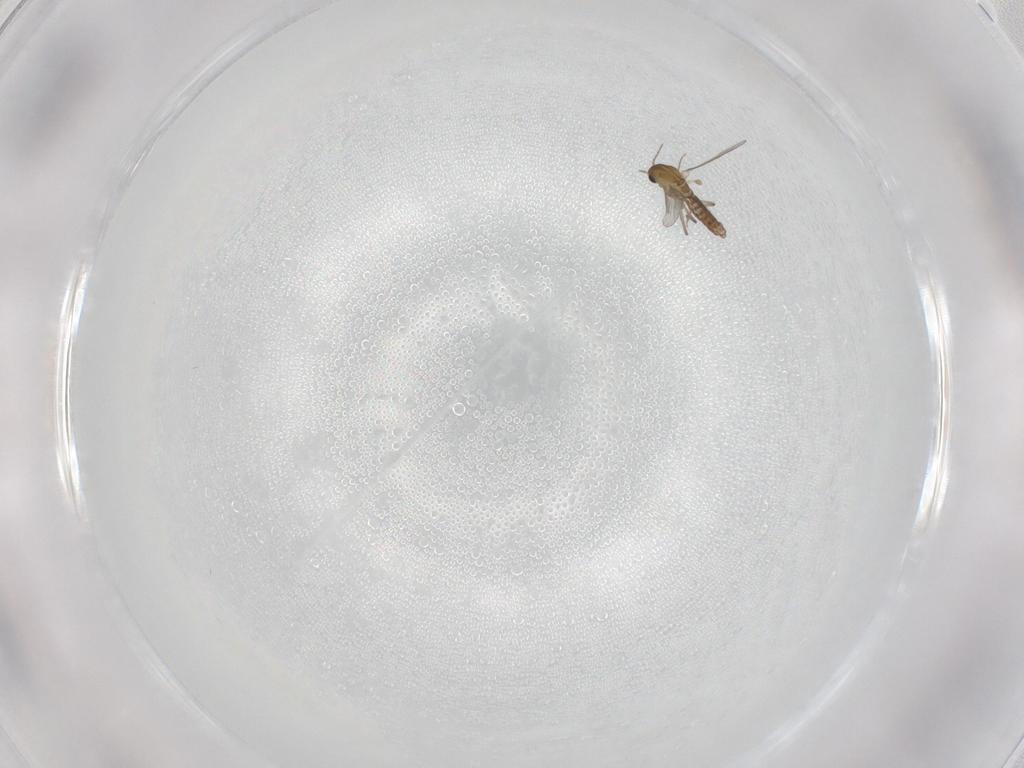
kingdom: Animalia
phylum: Arthropoda
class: Insecta
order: Diptera
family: Chironomidae
